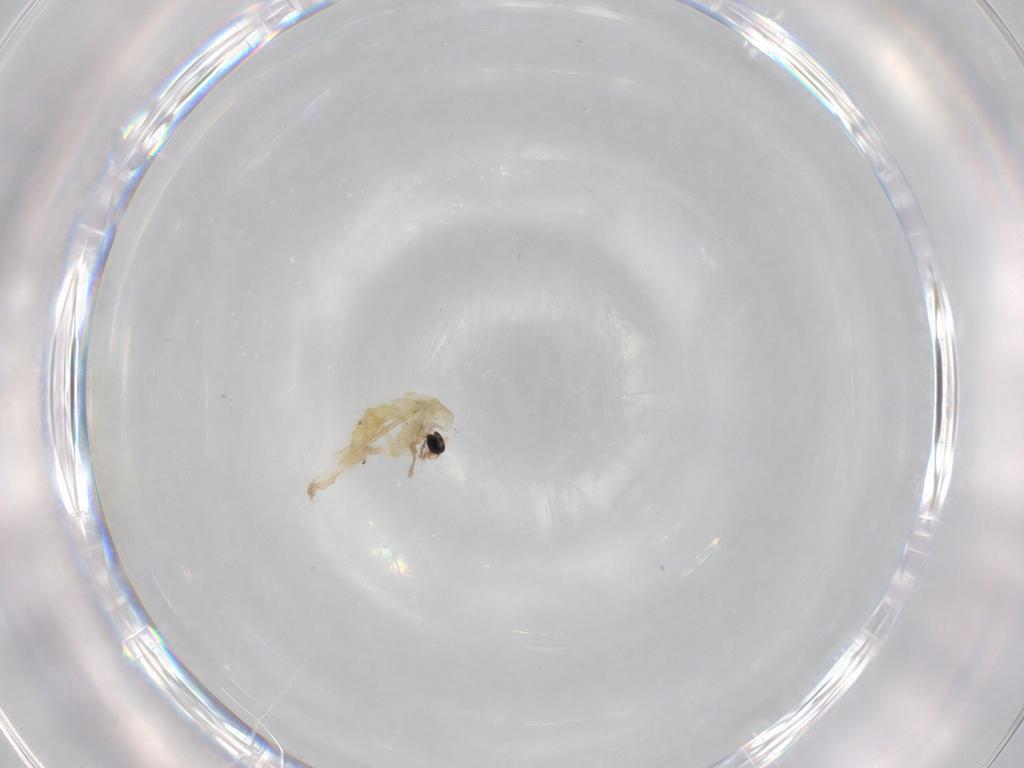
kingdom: Animalia
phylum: Arthropoda
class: Insecta
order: Diptera
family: Chironomidae
